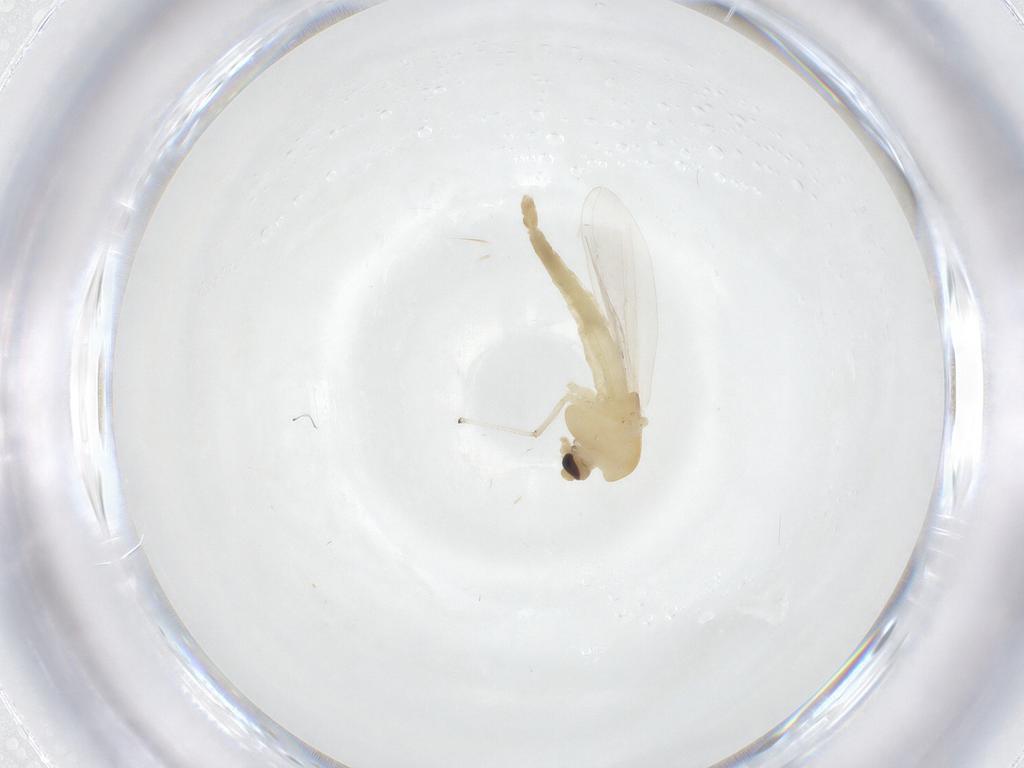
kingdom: Animalia
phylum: Arthropoda
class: Insecta
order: Diptera
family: Chironomidae
